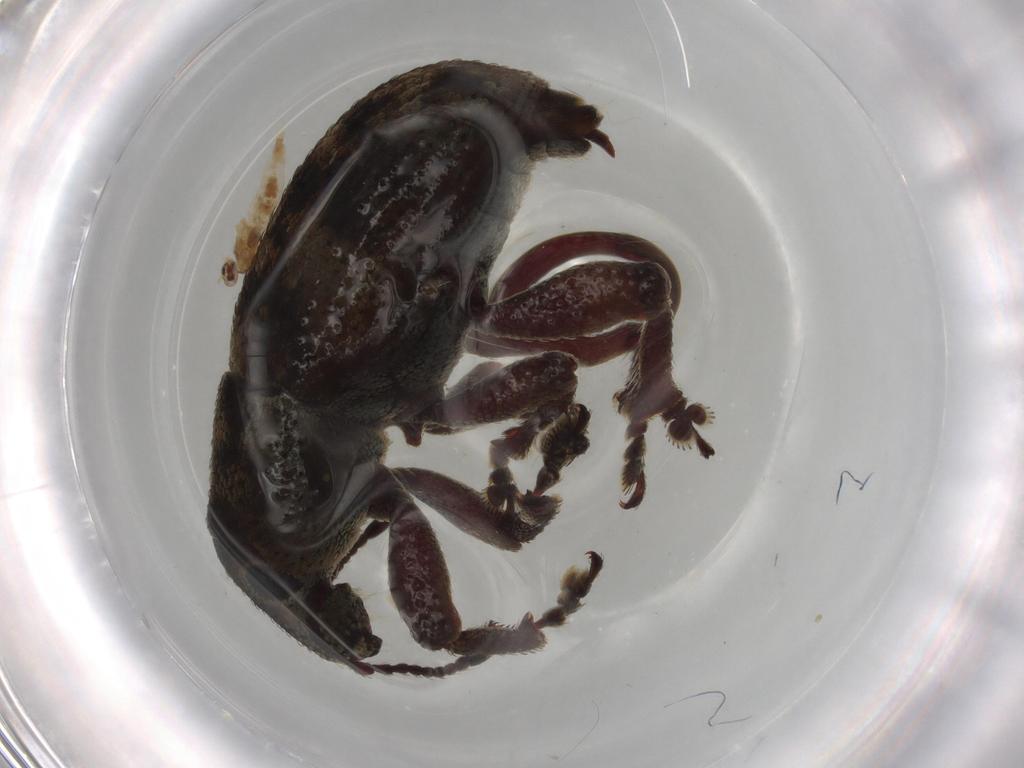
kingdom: Animalia
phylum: Arthropoda
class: Insecta
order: Coleoptera
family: Curculionidae
